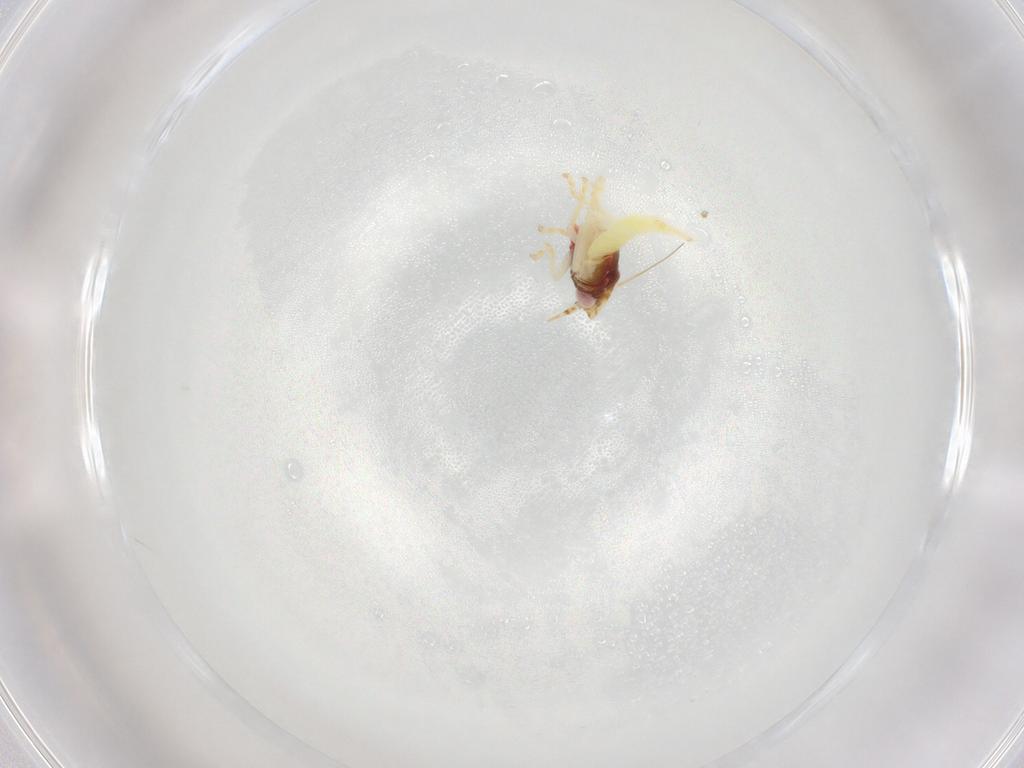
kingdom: Animalia
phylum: Arthropoda
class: Insecta
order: Hemiptera
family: Cicadellidae
